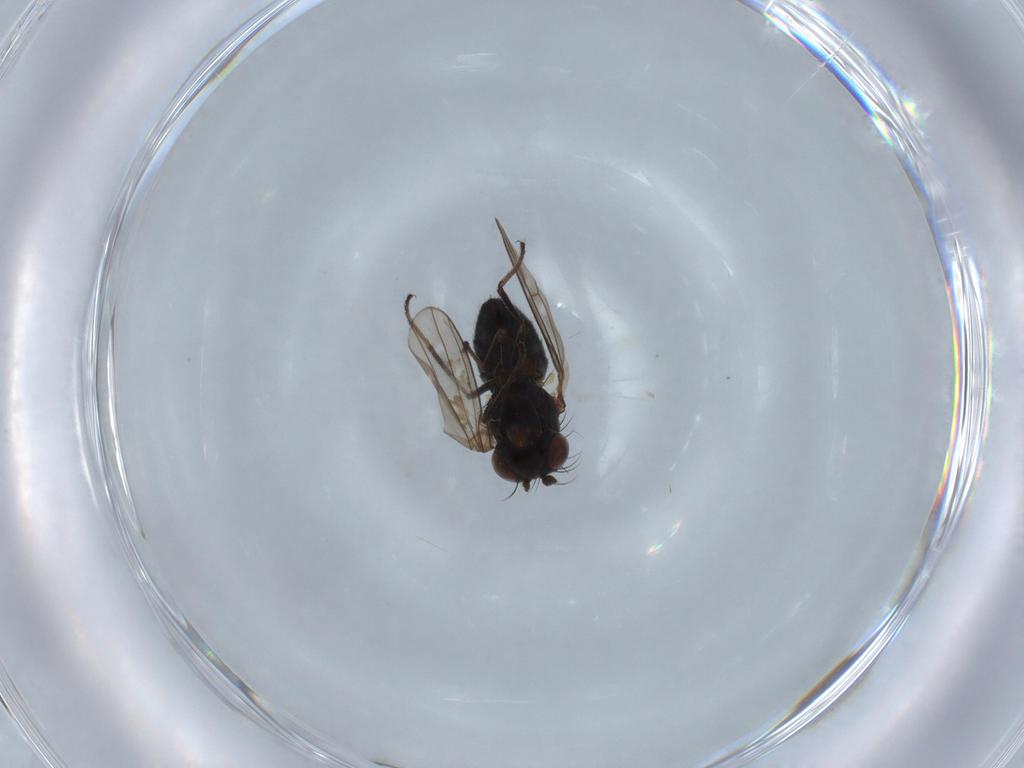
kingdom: Animalia
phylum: Arthropoda
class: Insecta
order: Diptera
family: Ephydridae
